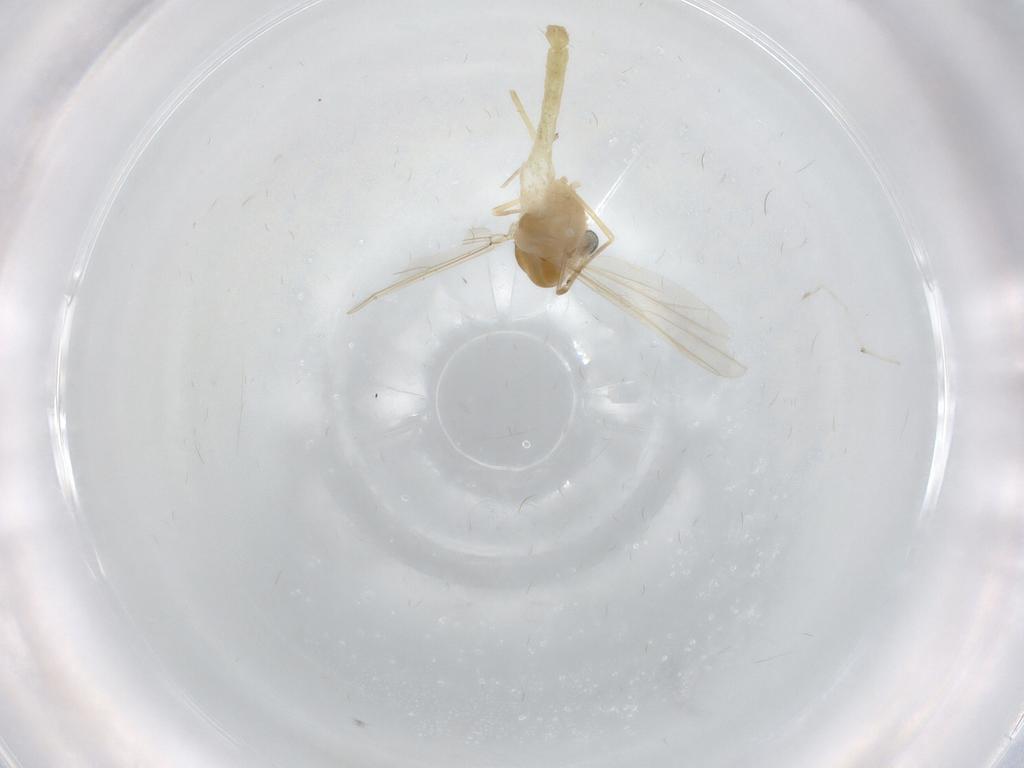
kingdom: Animalia
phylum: Arthropoda
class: Insecta
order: Diptera
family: Chironomidae
